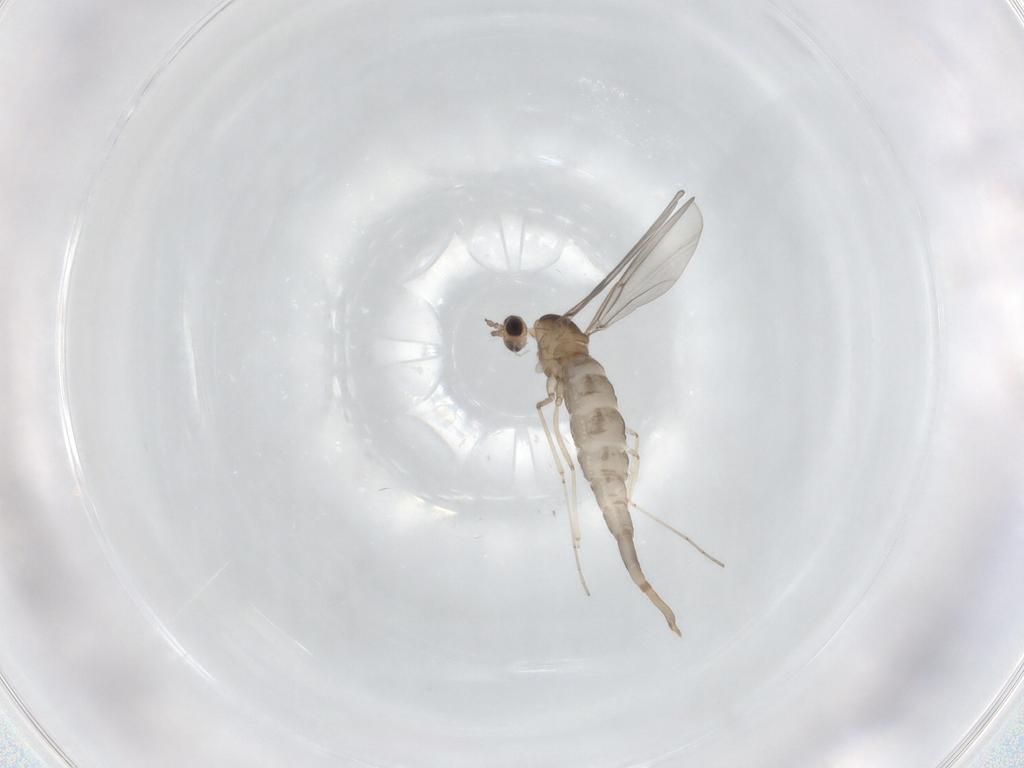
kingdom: Animalia
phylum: Arthropoda
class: Insecta
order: Diptera
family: Cecidomyiidae
